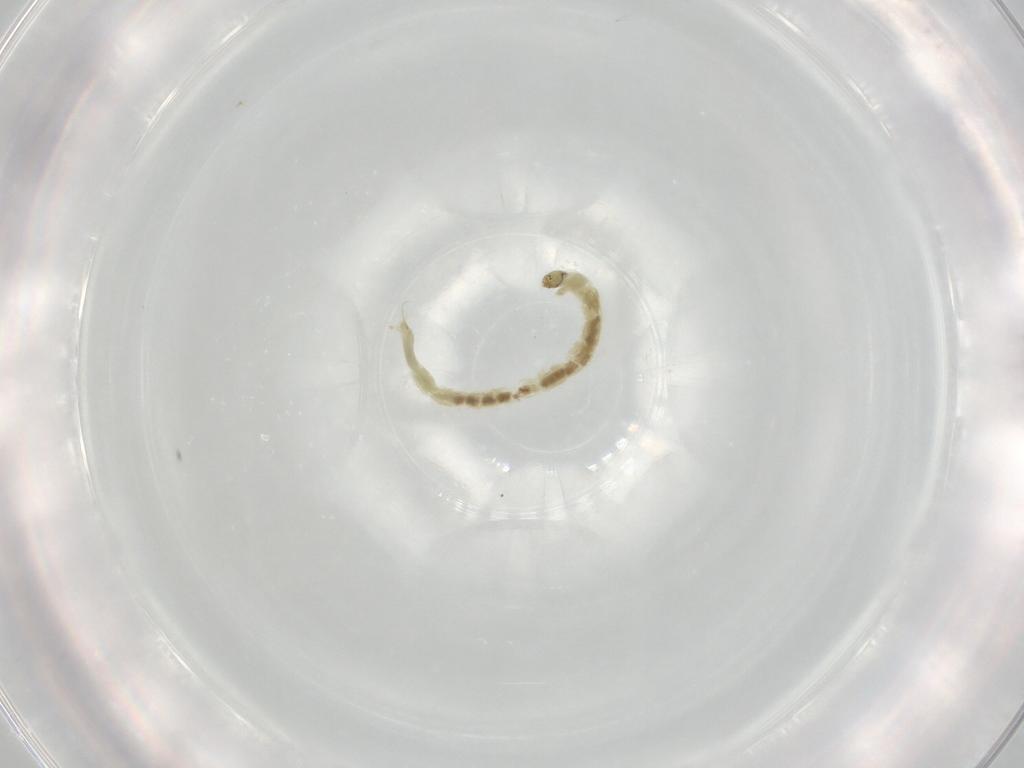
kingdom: Animalia
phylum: Arthropoda
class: Insecta
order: Diptera
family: Chironomidae
